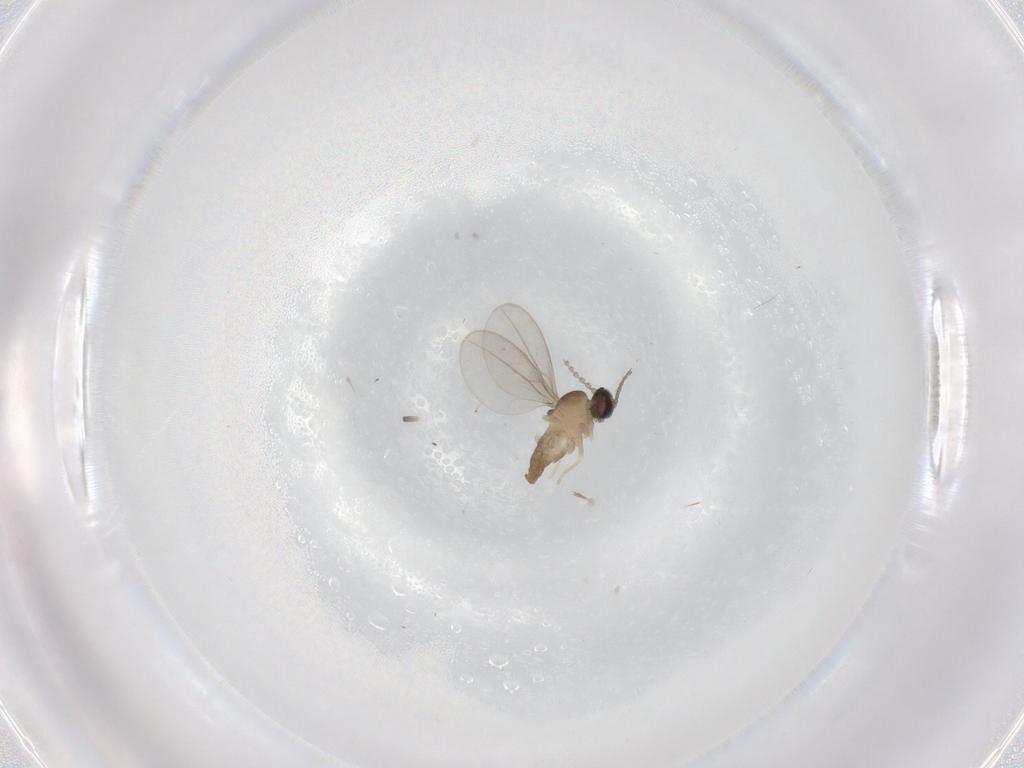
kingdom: Animalia
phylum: Arthropoda
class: Insecta
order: Diptera
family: Cecidomyiidae
